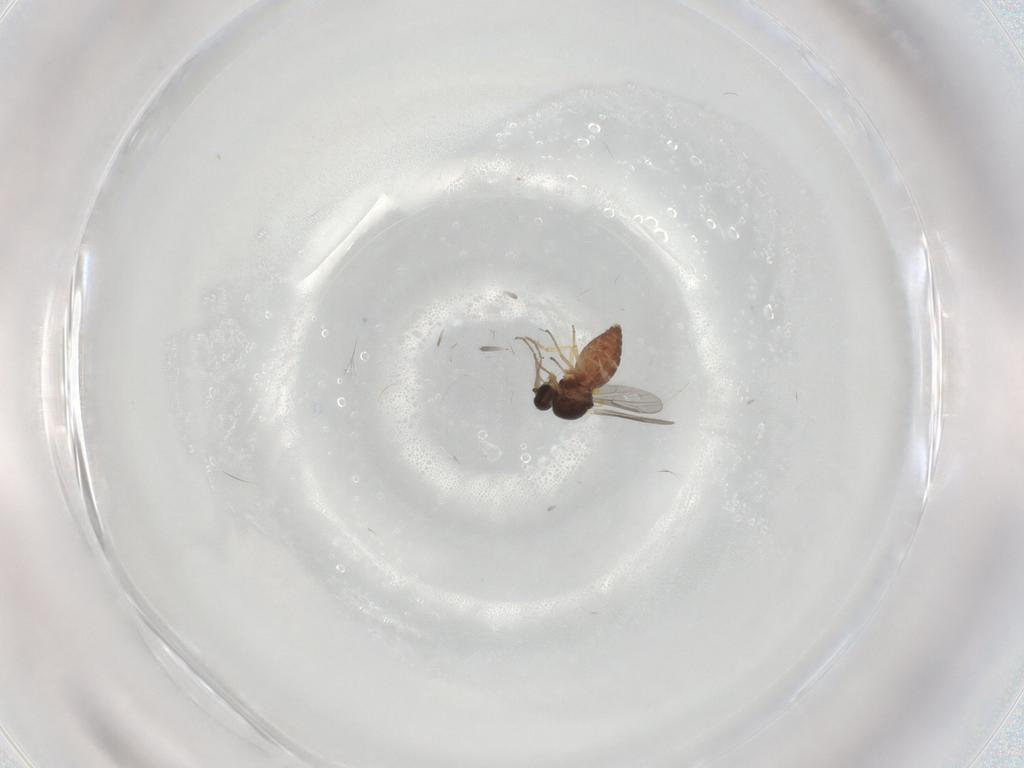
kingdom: Animalia
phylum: Arthropoda
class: Insecta
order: Diptera
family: Ceratopogonidae
